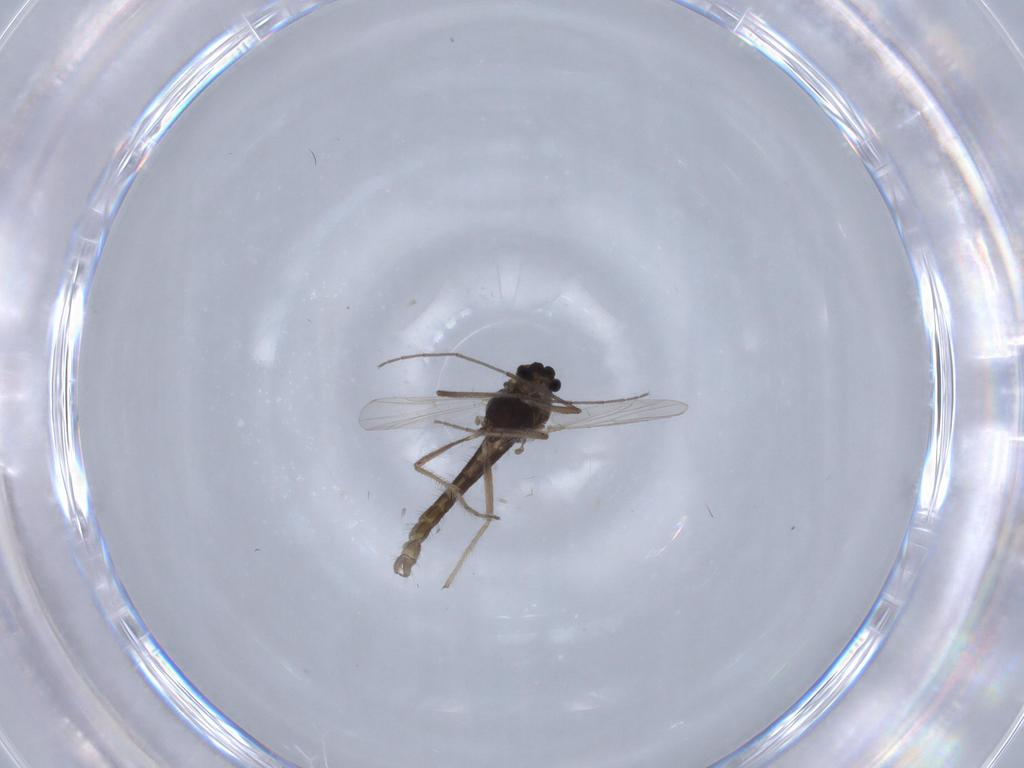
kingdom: Animalia
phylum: Arthropoda
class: Insecta
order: Diptera
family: Chironomidae
